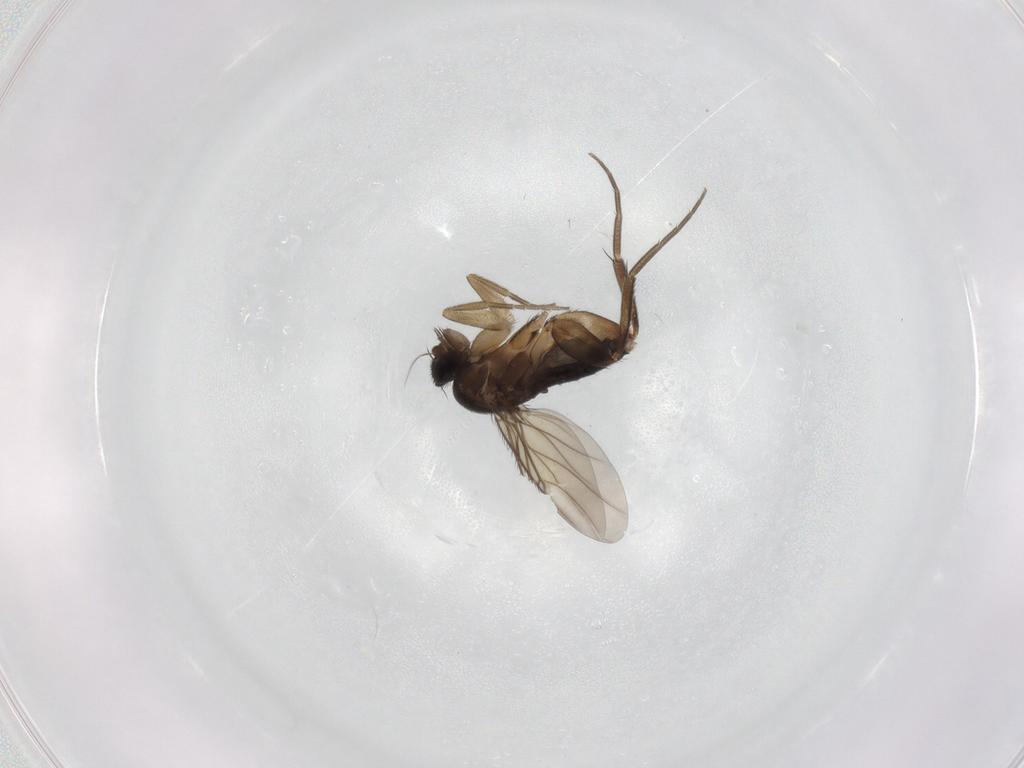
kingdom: Animalia
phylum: Arthropoda
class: Insecta
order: Diptera
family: Phoridae
